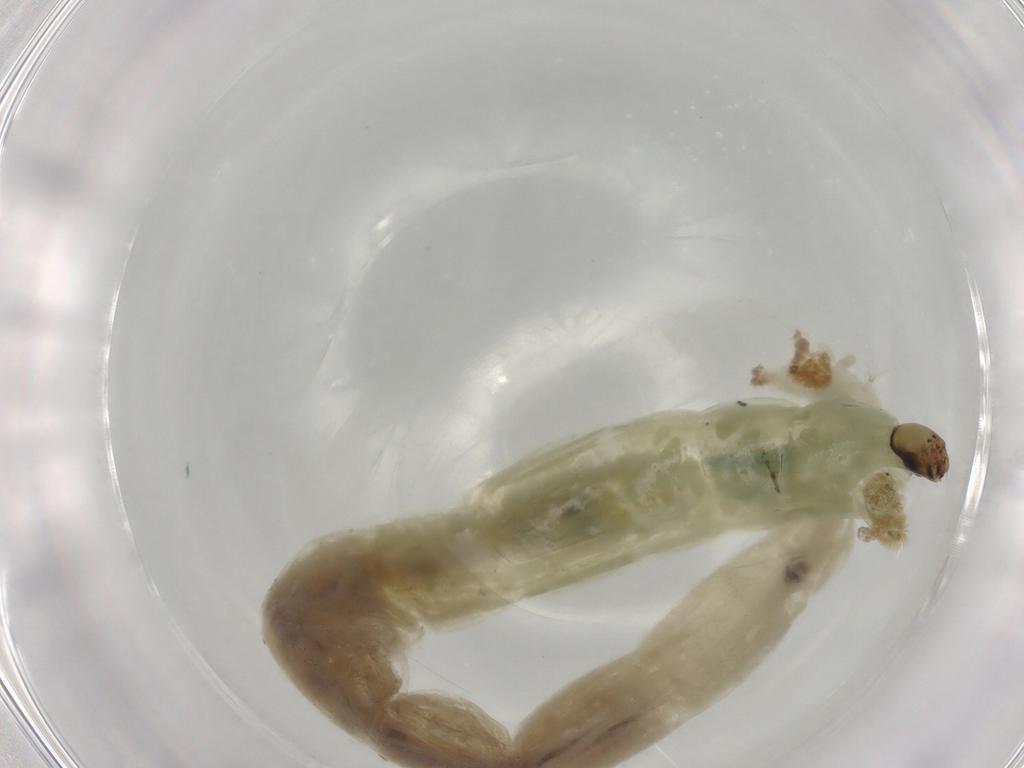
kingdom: Animalia
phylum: Arthropoda
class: Insecta
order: Diptera
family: Chironomidae
